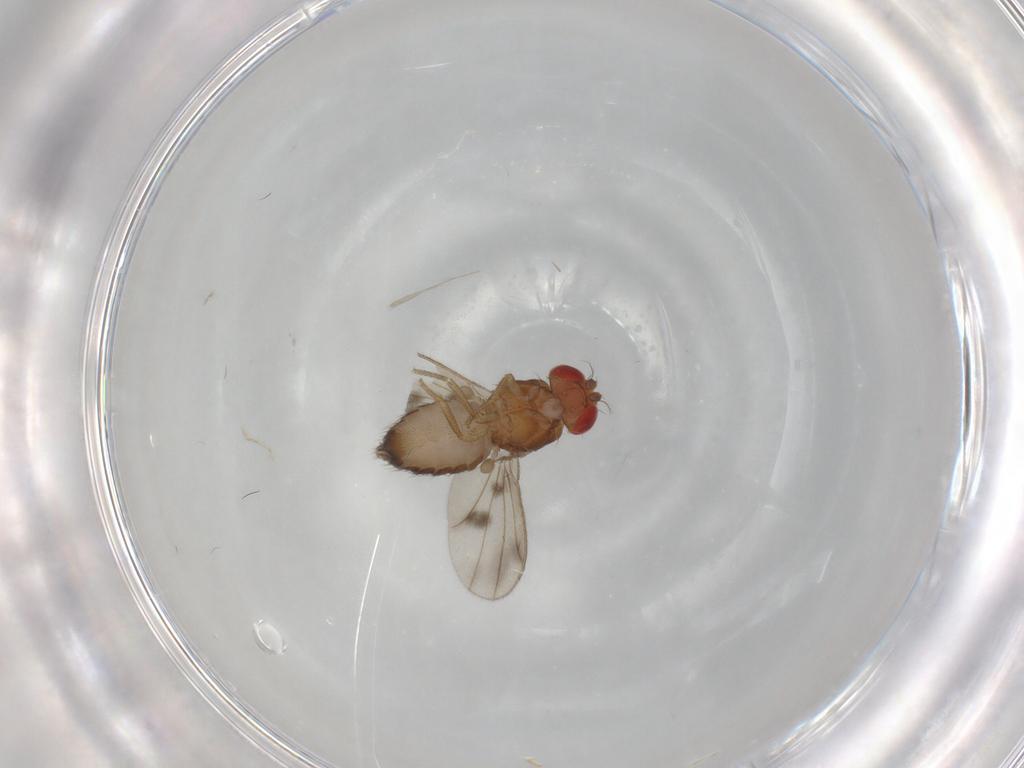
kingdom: Animalia
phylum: Arthropoda
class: Insecta
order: Diptera
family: Drosophilidae
